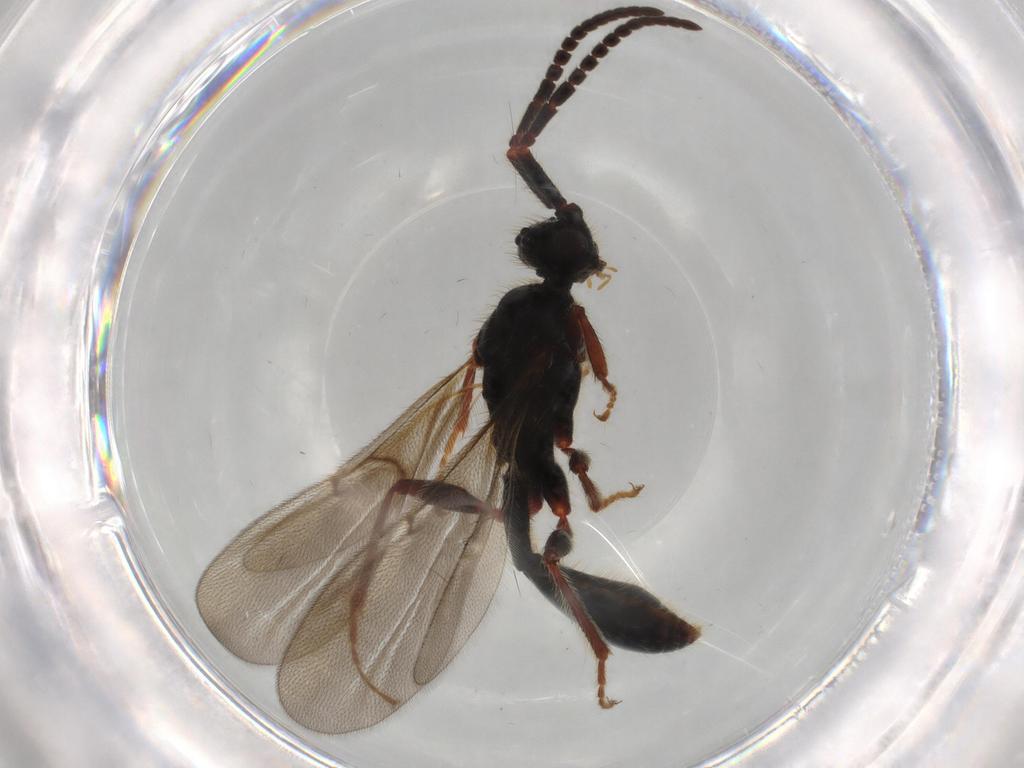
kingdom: Animalia
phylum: Arthropoda
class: Insecta
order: Hymenoptera
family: Diapriidae
